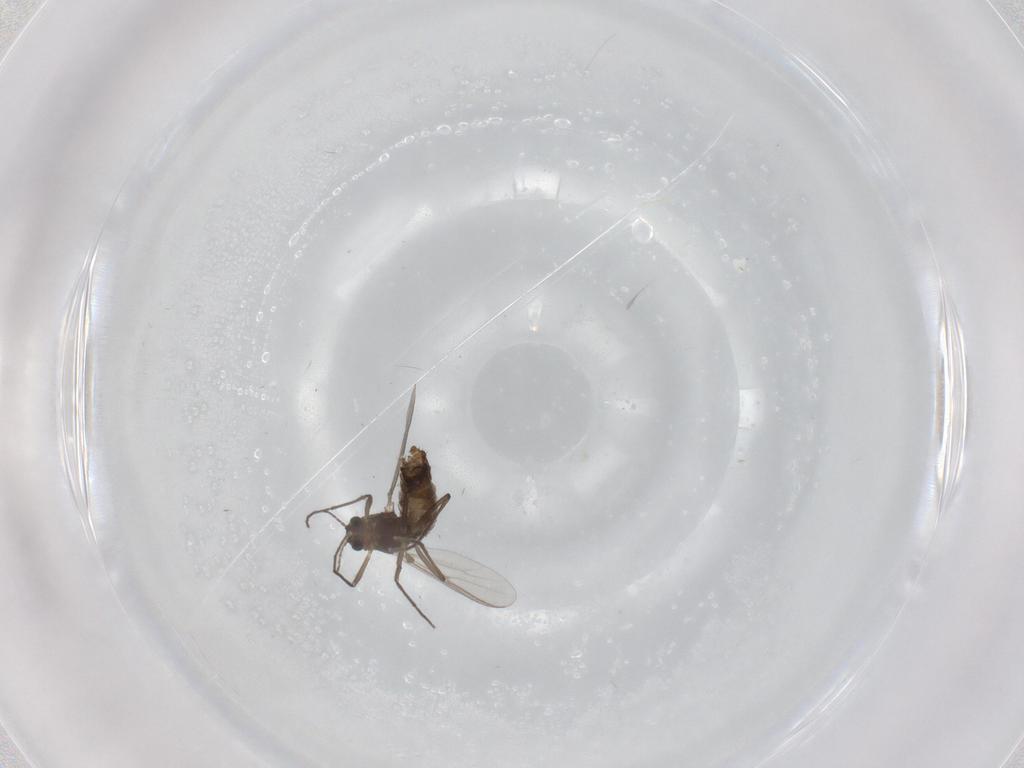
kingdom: Animalia
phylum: Arthropoda
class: Insecta
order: Diptera
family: Chironomidae
